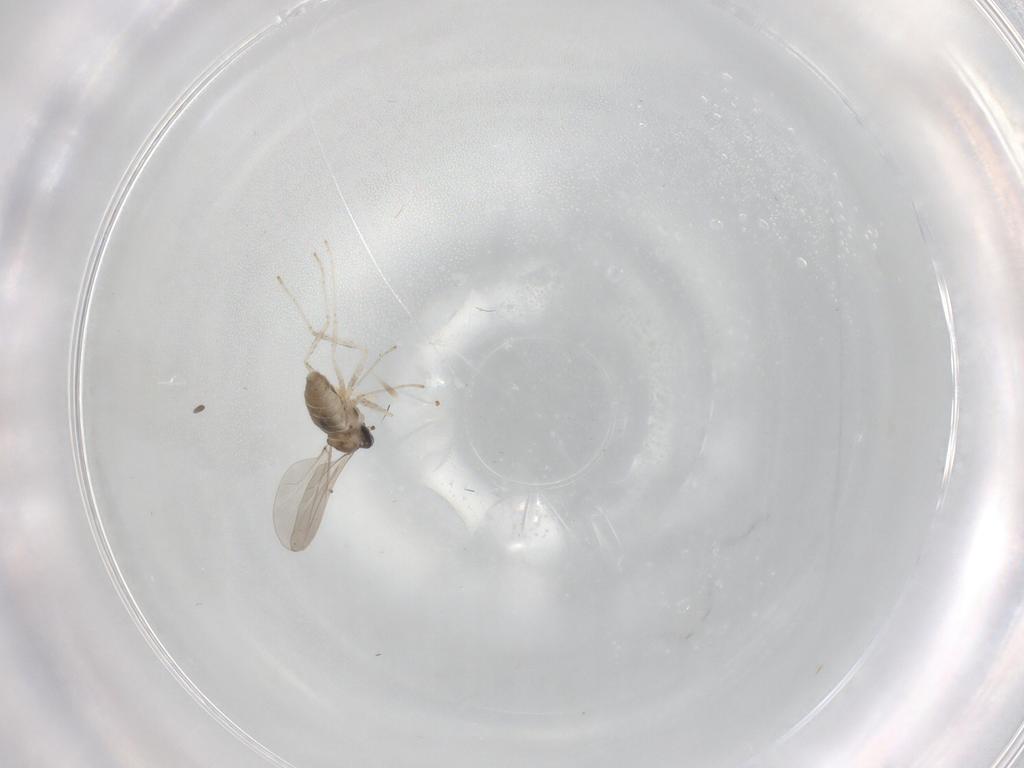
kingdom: Animalia
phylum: Arthropoda
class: Insecta
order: Diptera
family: Cecidomyiidae
